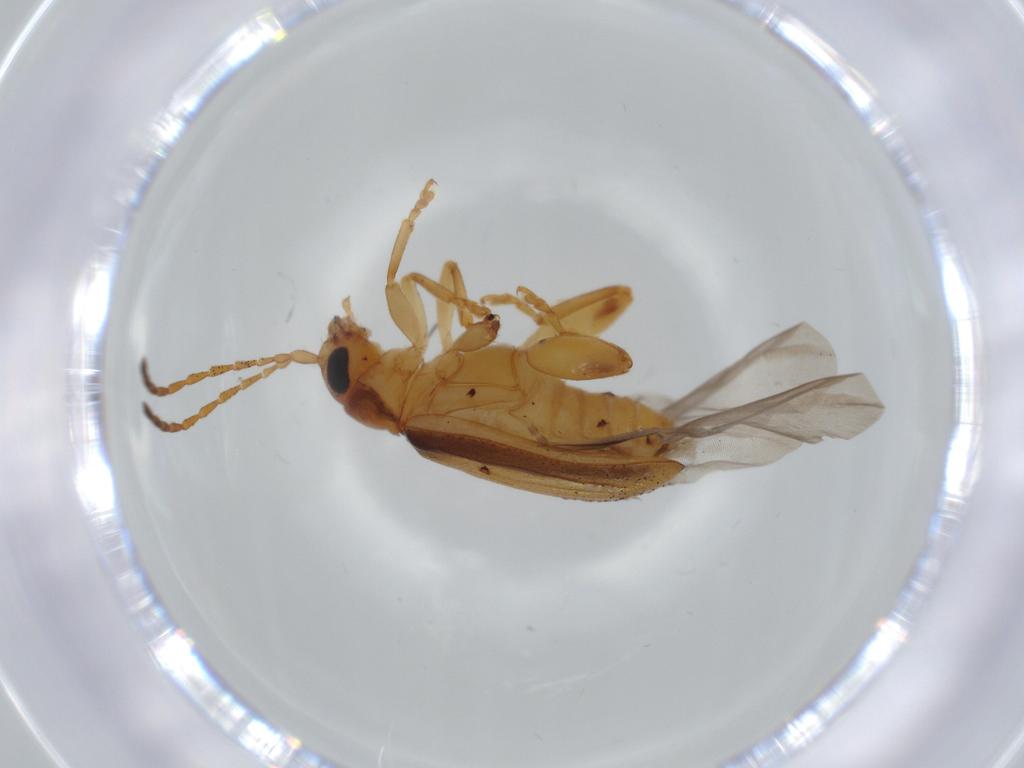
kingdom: Animalia
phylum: Arthropoda
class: Insecta
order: Coleoptera
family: Chrysomelidae
